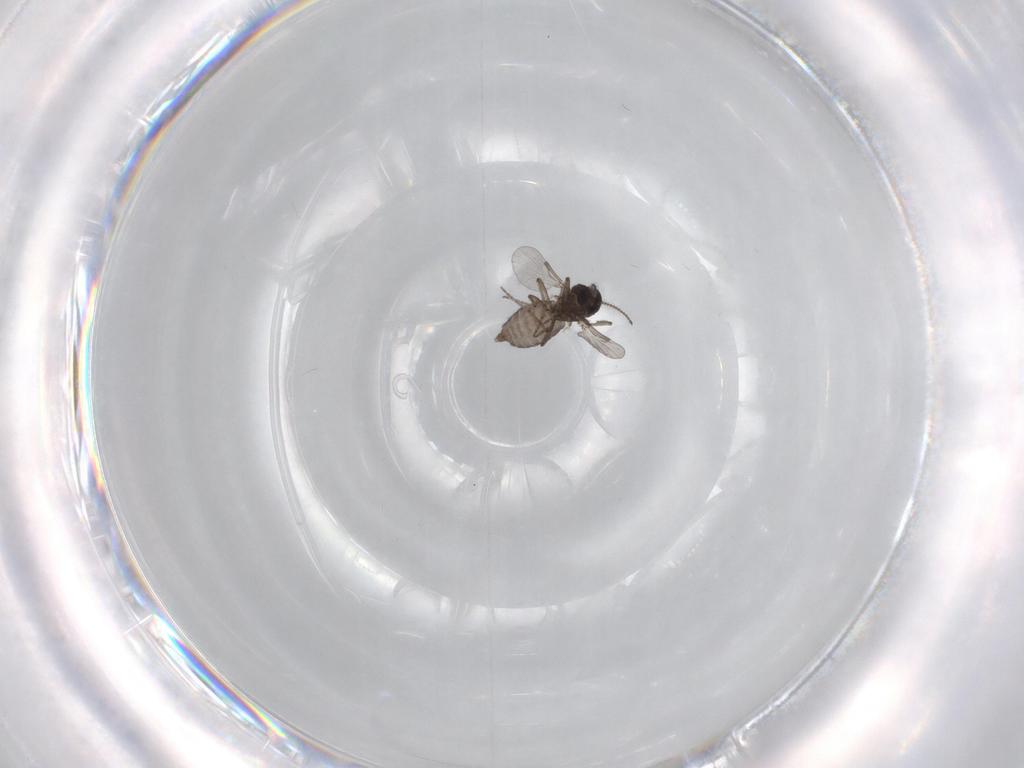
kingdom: Animalia
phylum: Arthropoda
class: Insecta
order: Diptera
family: Ceratopogonidae
